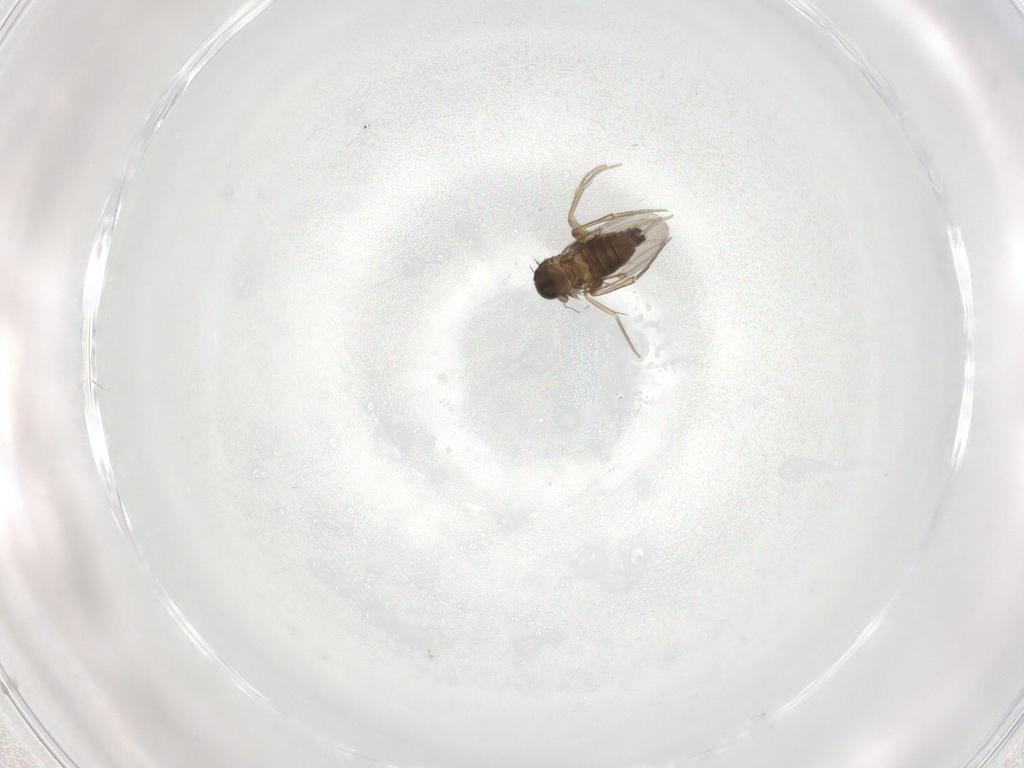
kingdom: Animalia
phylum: Arthropoda
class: Insecta
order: Diptera
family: Phoridae
